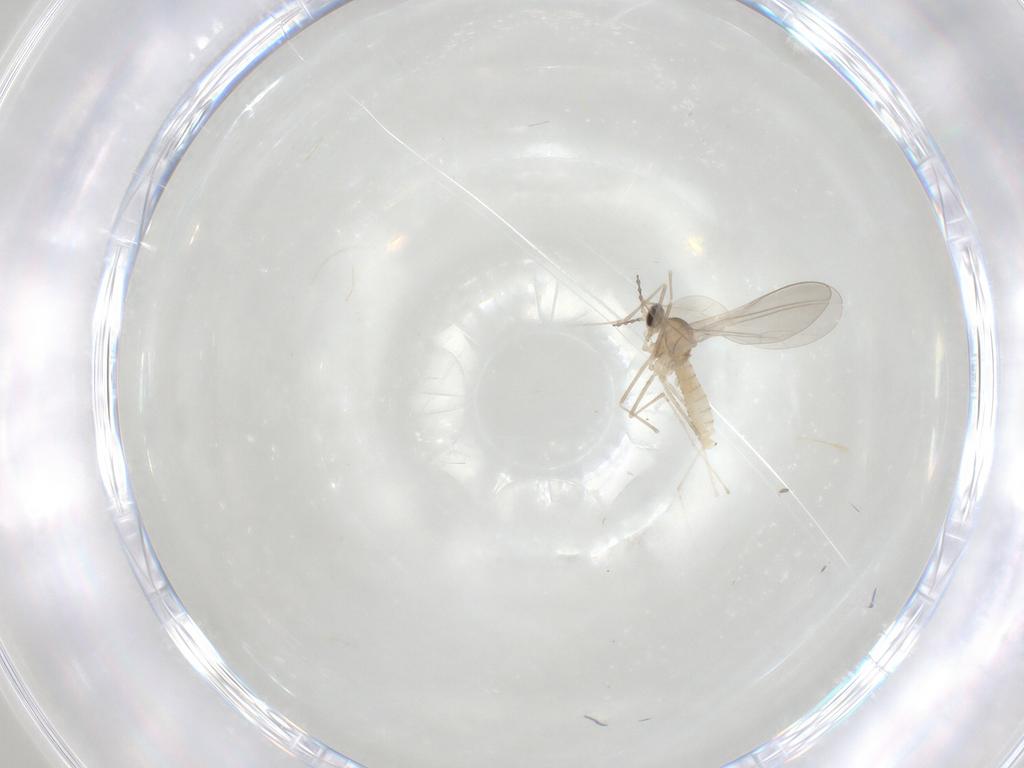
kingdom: Animalia
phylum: Arthropoda
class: Insecta
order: Diptera
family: Cecidomyiidae
